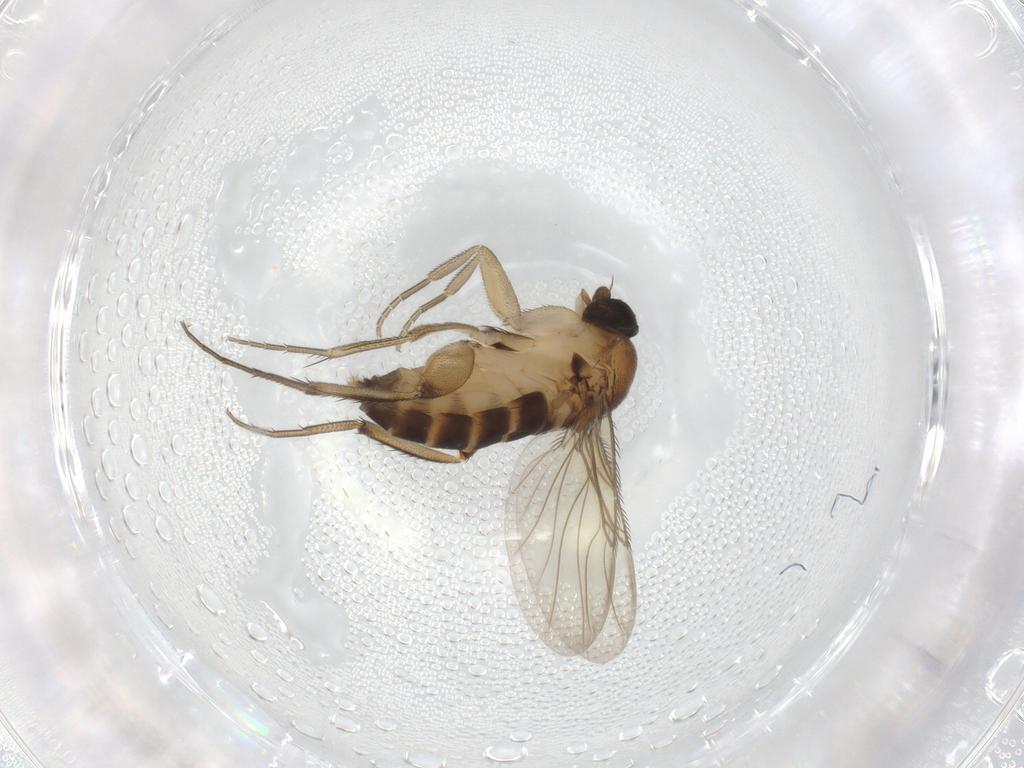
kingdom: Animalia
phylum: Arthropoda
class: Insecta
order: Diptera
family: Phoridae
